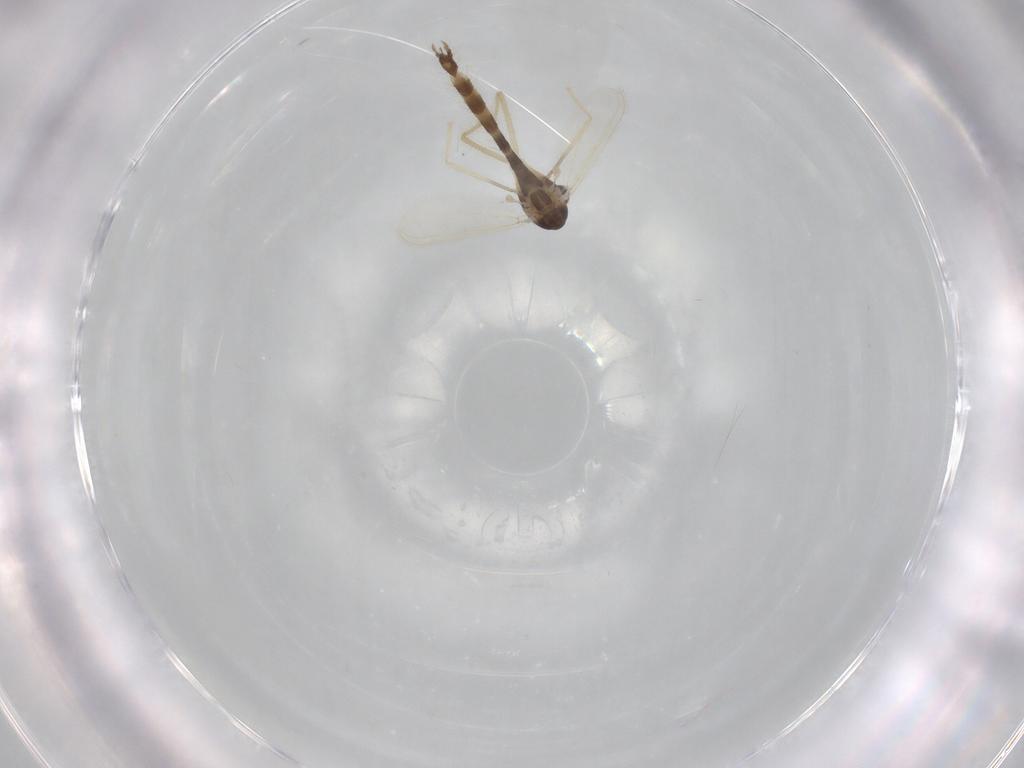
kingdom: Animalia
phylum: Arthropoda
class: Insecta
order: Diptera
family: Chironomidae
